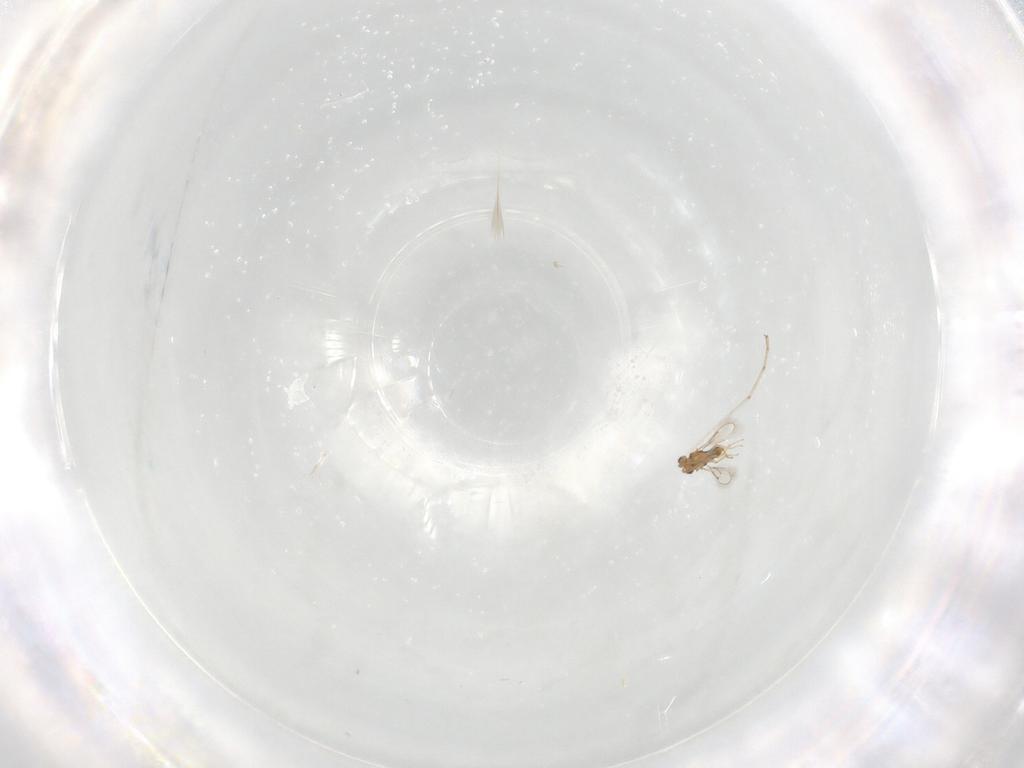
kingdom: Animalia
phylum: Arthropoda
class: Insecta
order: Hymenoptera
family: Aphelinidae
